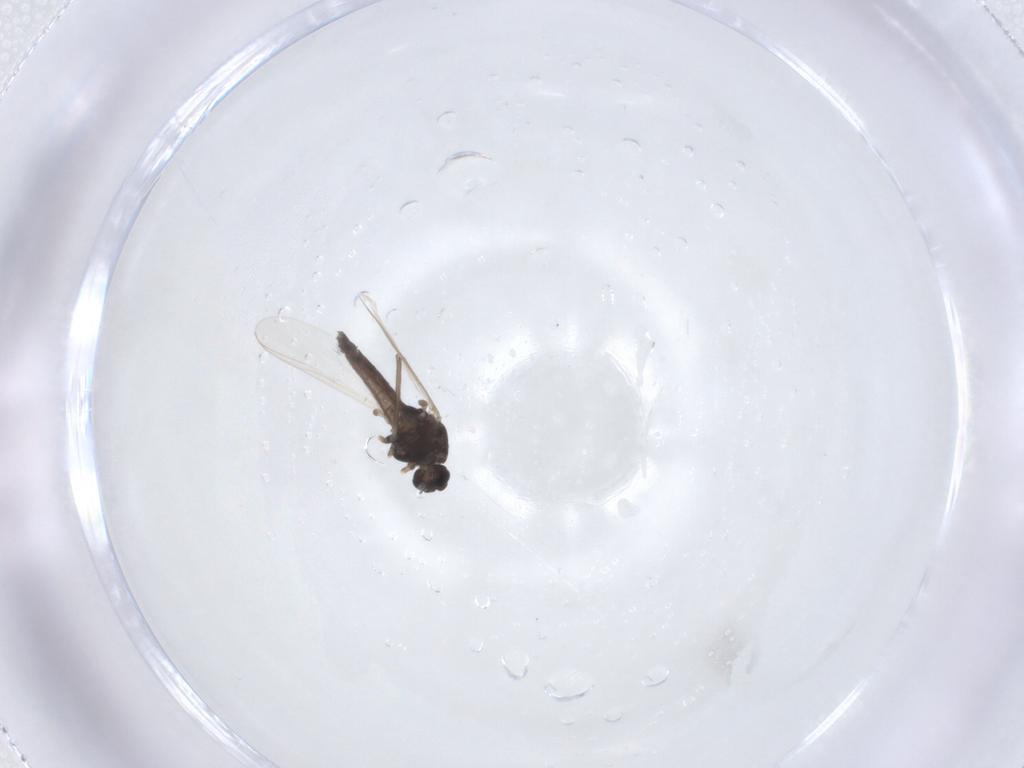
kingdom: Animalia
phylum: Arthropoda
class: Insecta
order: Diptera
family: Chironomidae
